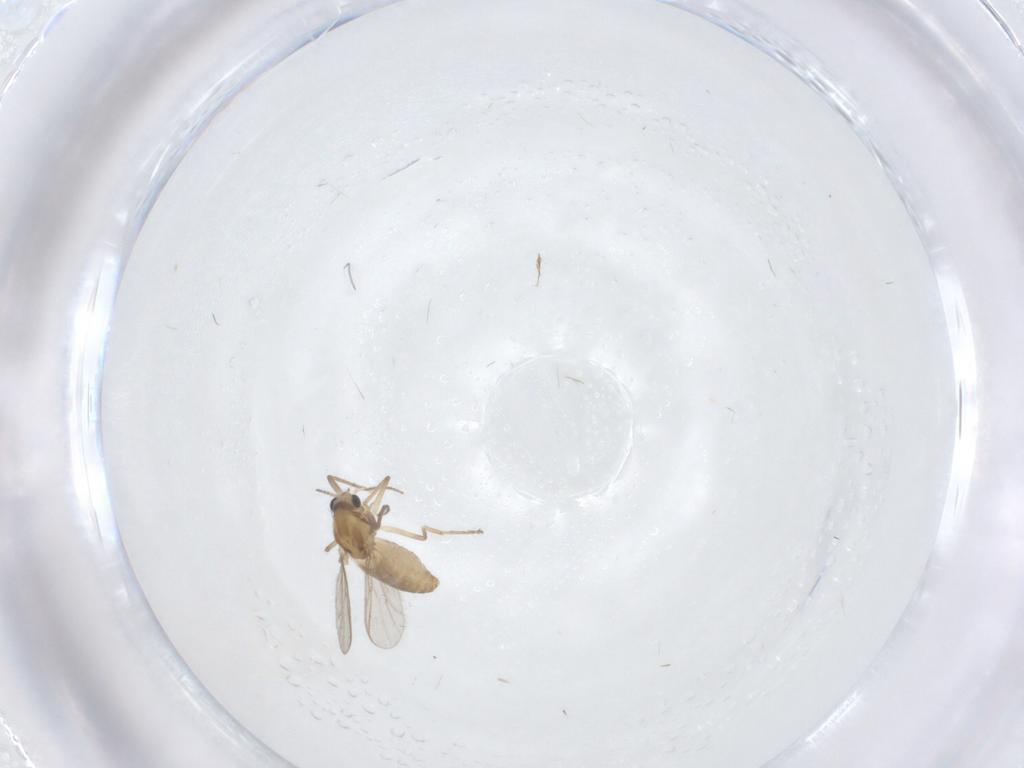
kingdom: Animalia
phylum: Arthropoda
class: Insecta
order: Diptera
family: Chironomidae
